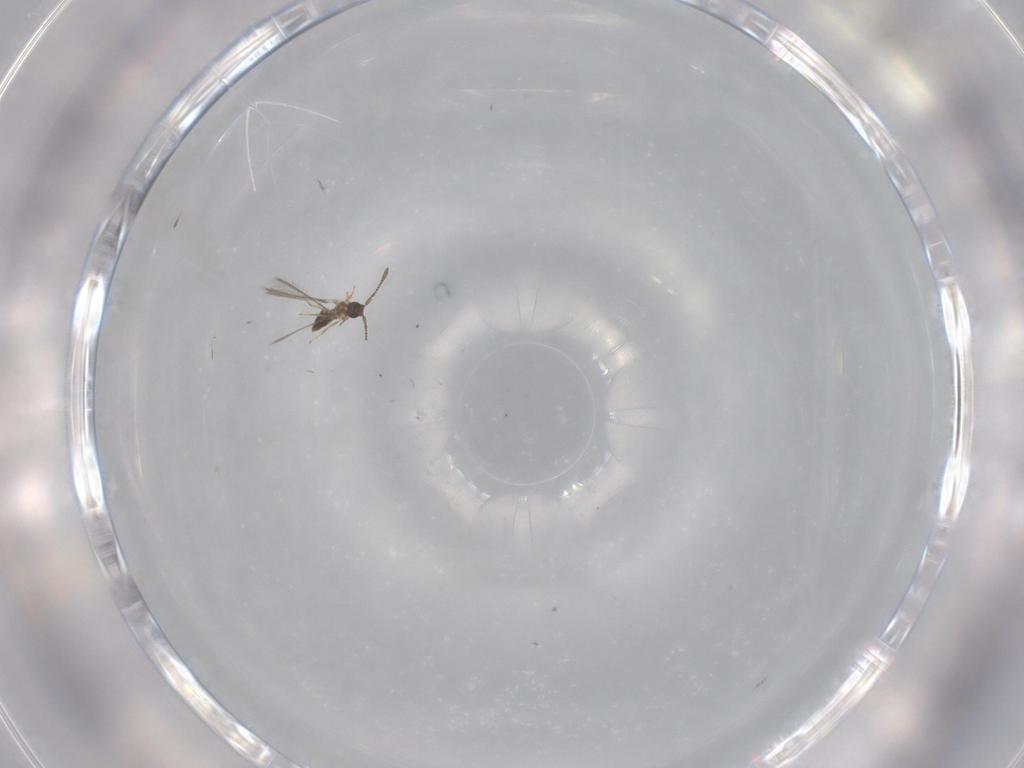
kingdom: Animalia
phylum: Arthropoda
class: Insecta
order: Hymenoptera
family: Mymaridae
